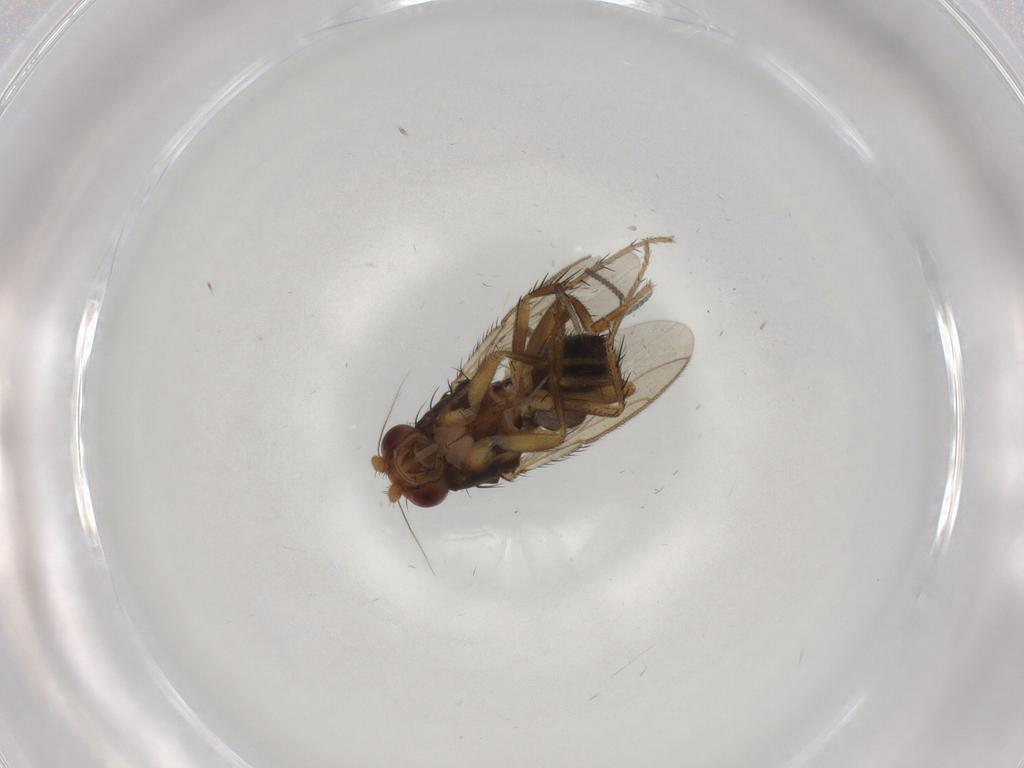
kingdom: Animalia
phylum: Arthropoda
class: Insecta
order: Diptera
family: Sphaeroceridae
